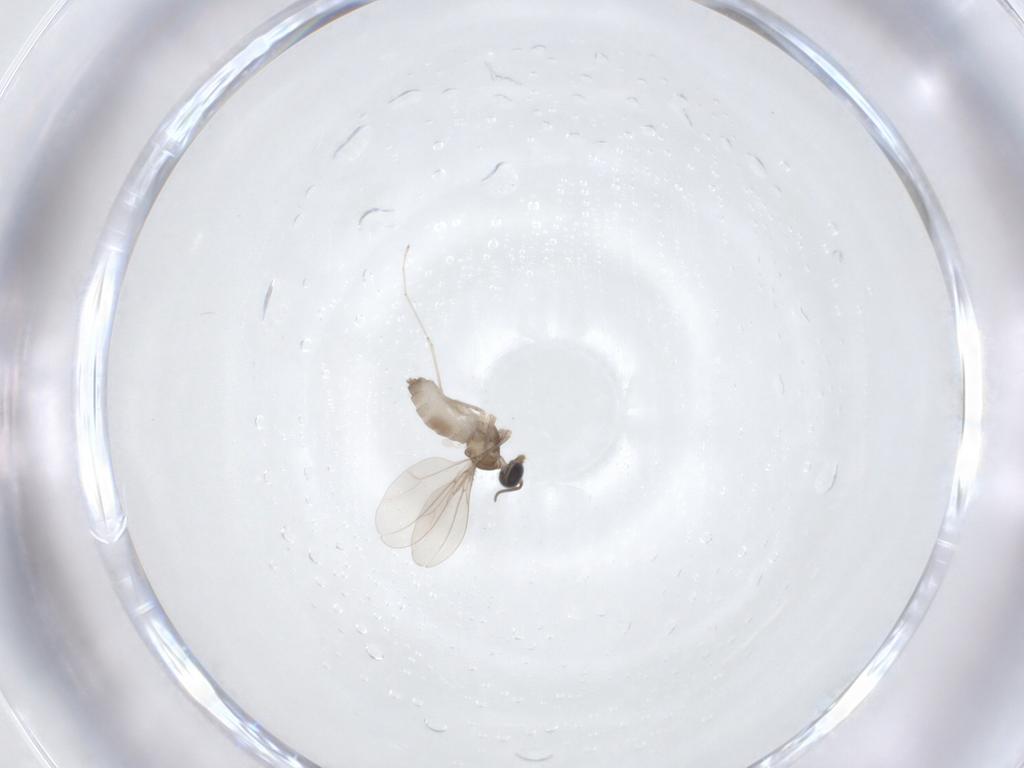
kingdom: Animalia
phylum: Arthropoda
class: Insecta
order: Diptera
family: Cecidomyiidae
